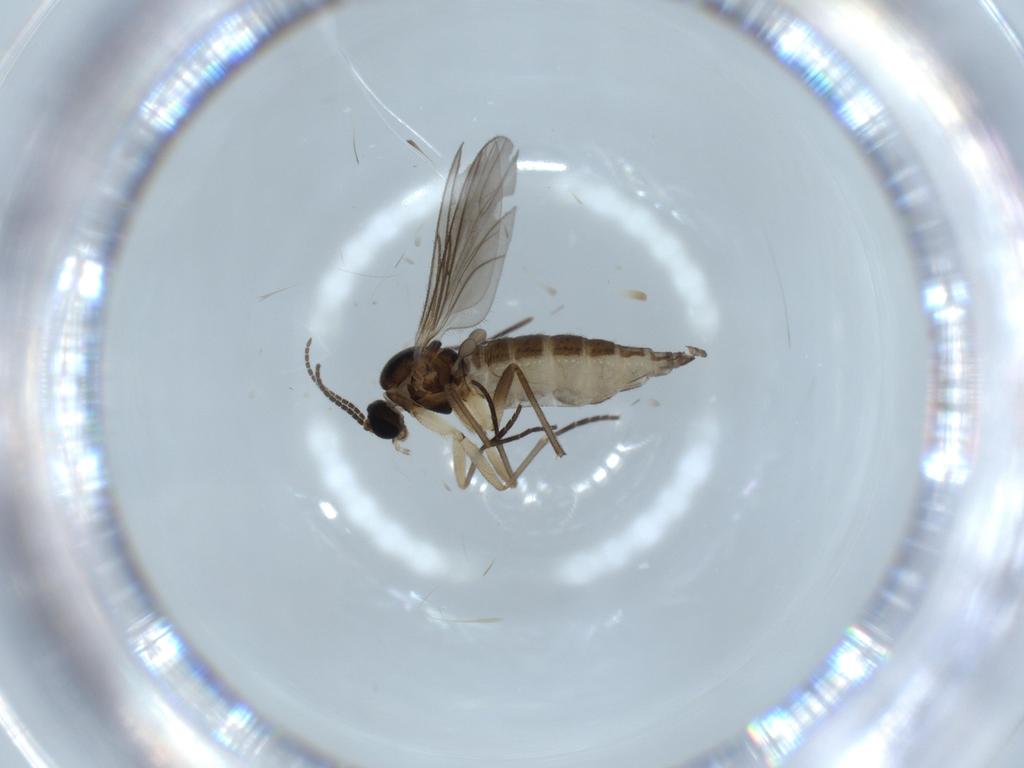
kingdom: Animalia
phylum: Arthropoda
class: Insecta
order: Diptera
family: Sciaridae
